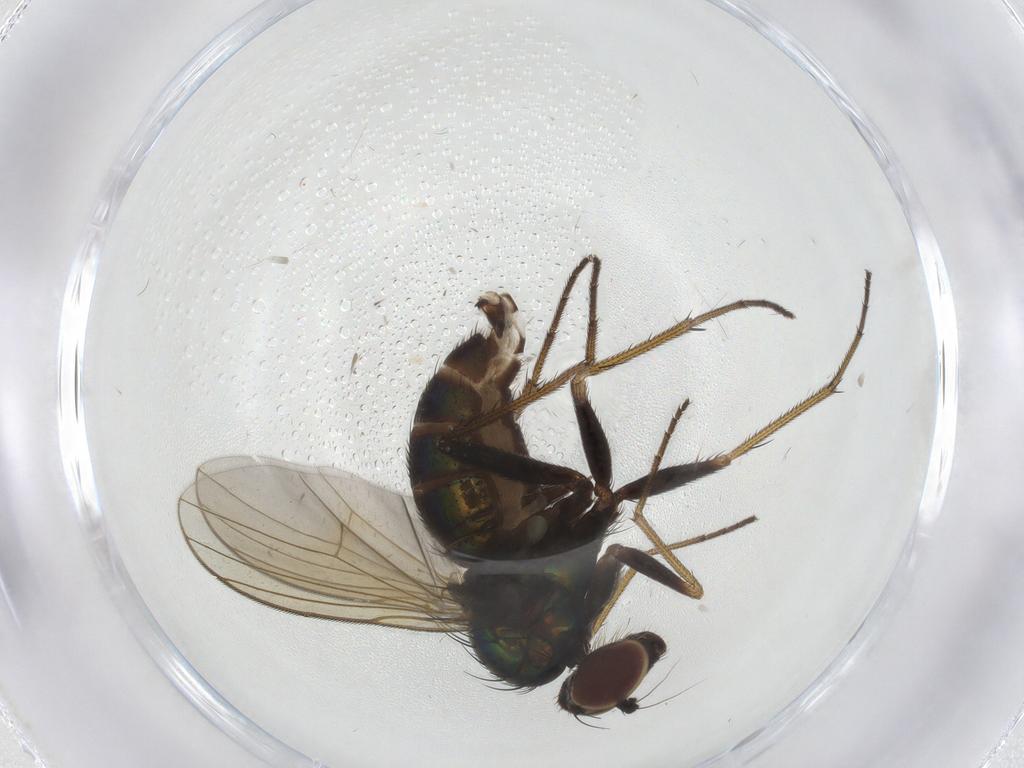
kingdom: Animalia
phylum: Arthropoda
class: Insecta
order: Diptera
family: Dolichopodidae
